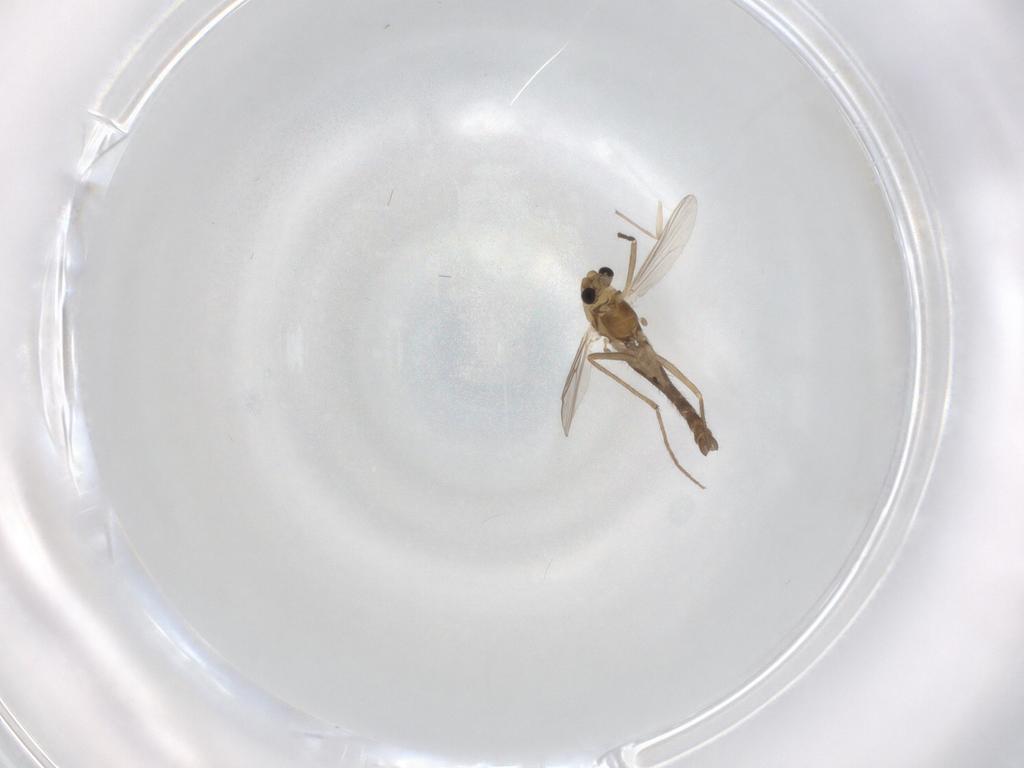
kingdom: Animalia
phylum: Arthropoda
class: Insecta
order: Diptera
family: Chironomidae
